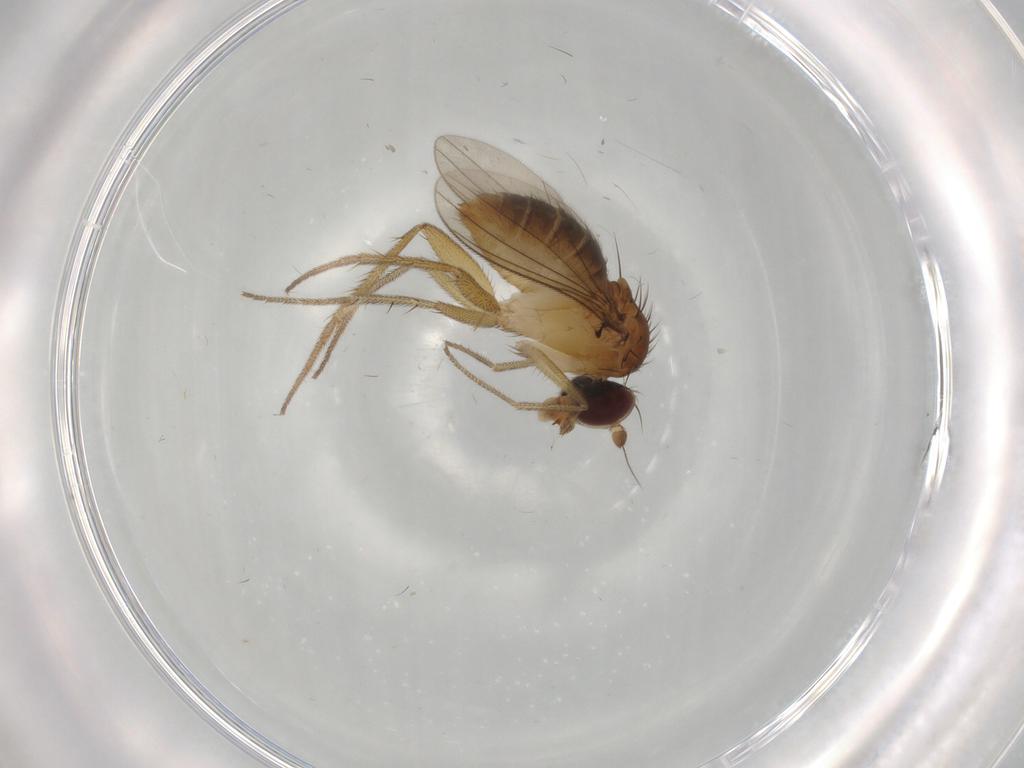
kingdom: Animalia
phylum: Arthropoda
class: Insecta
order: Diptera
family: Dolichopodidae
